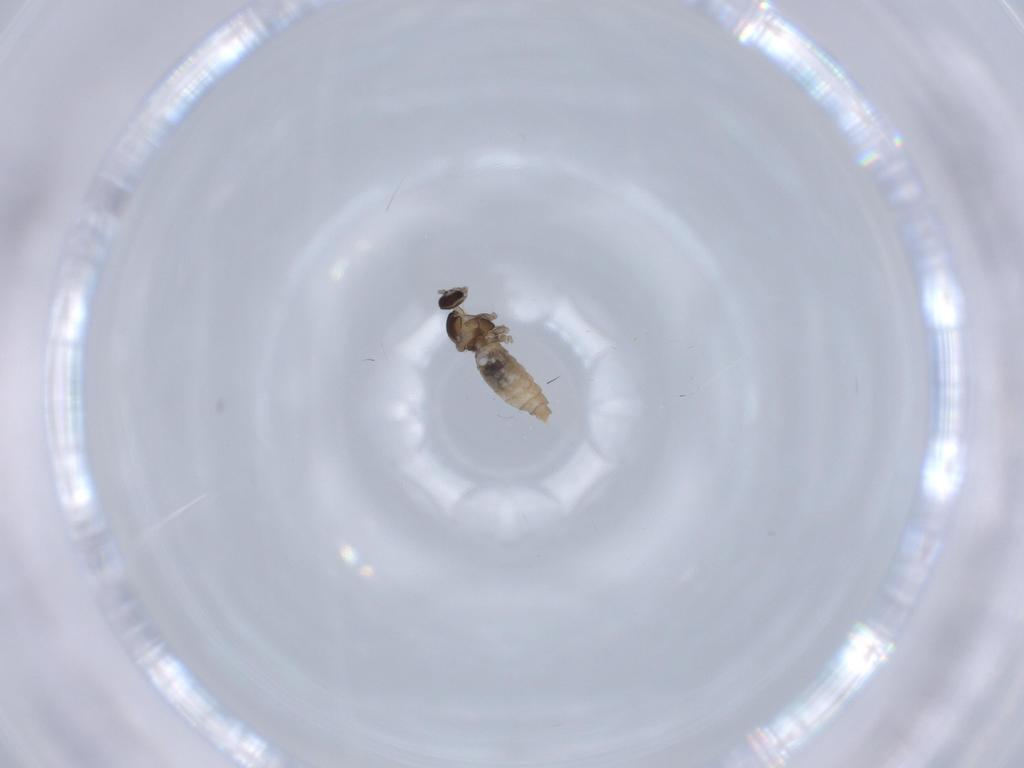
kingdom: Animalia
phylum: Arthropoda
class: Insecta
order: Diptera
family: Cecidomyiidae
